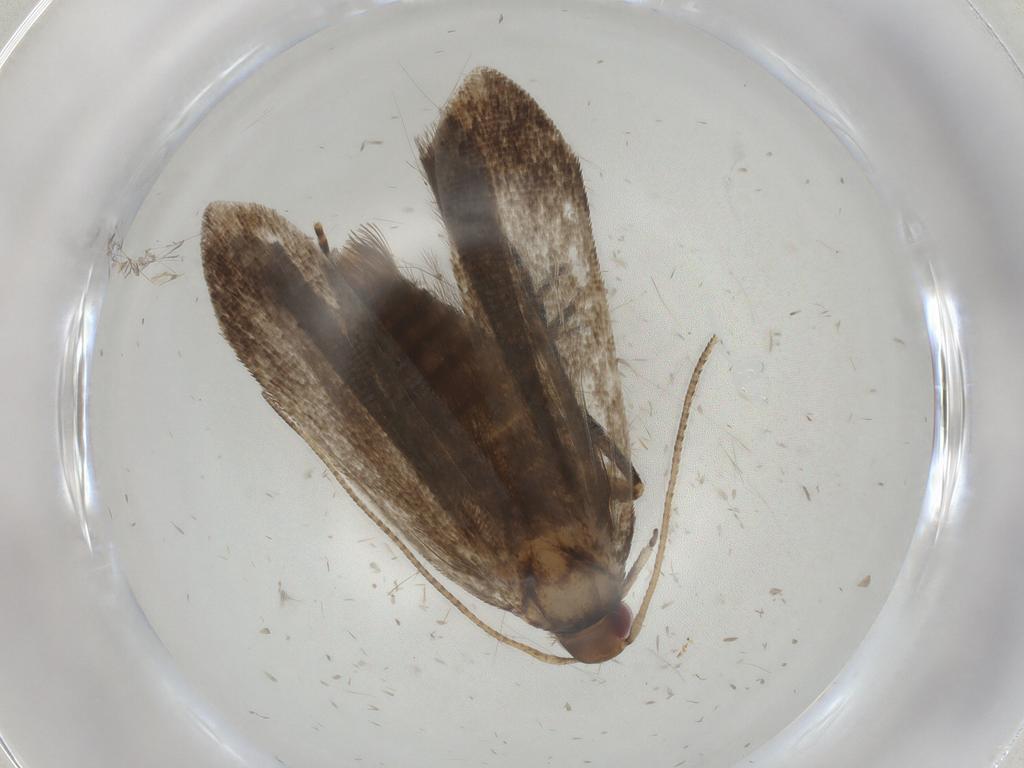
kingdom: Animalia
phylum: Arthropoda
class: Insecta
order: Lepidoptera
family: Gelechiidae
